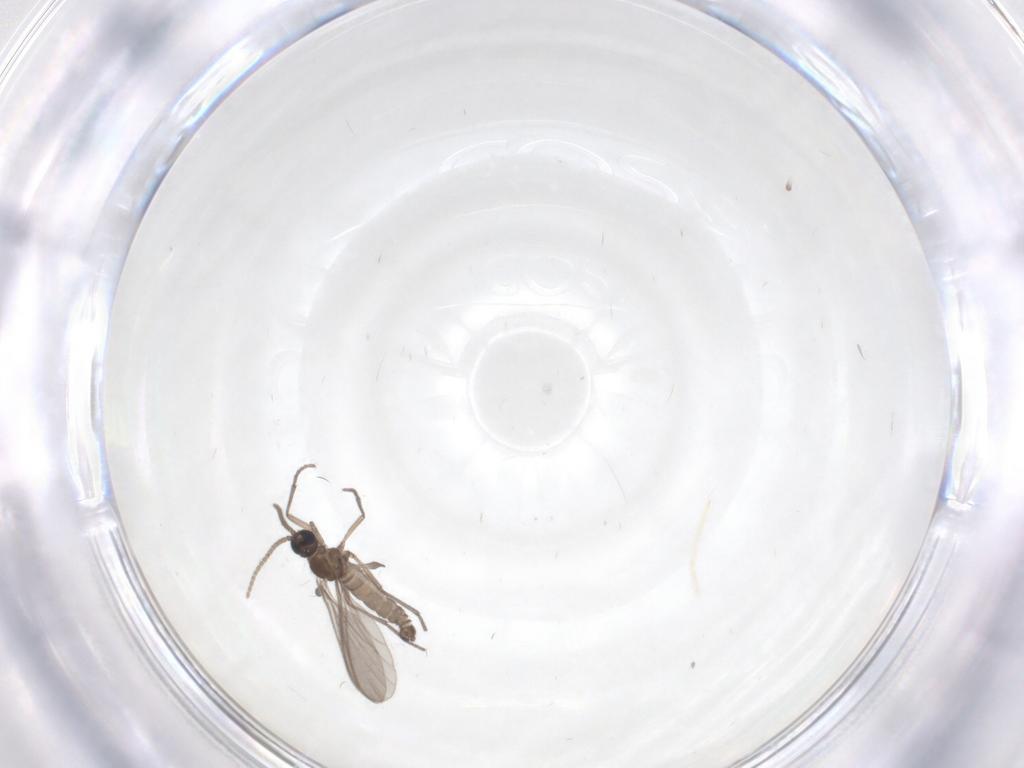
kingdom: Animalia
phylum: Arthropoda
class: Insecta
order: Diptera
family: Chironomidae
